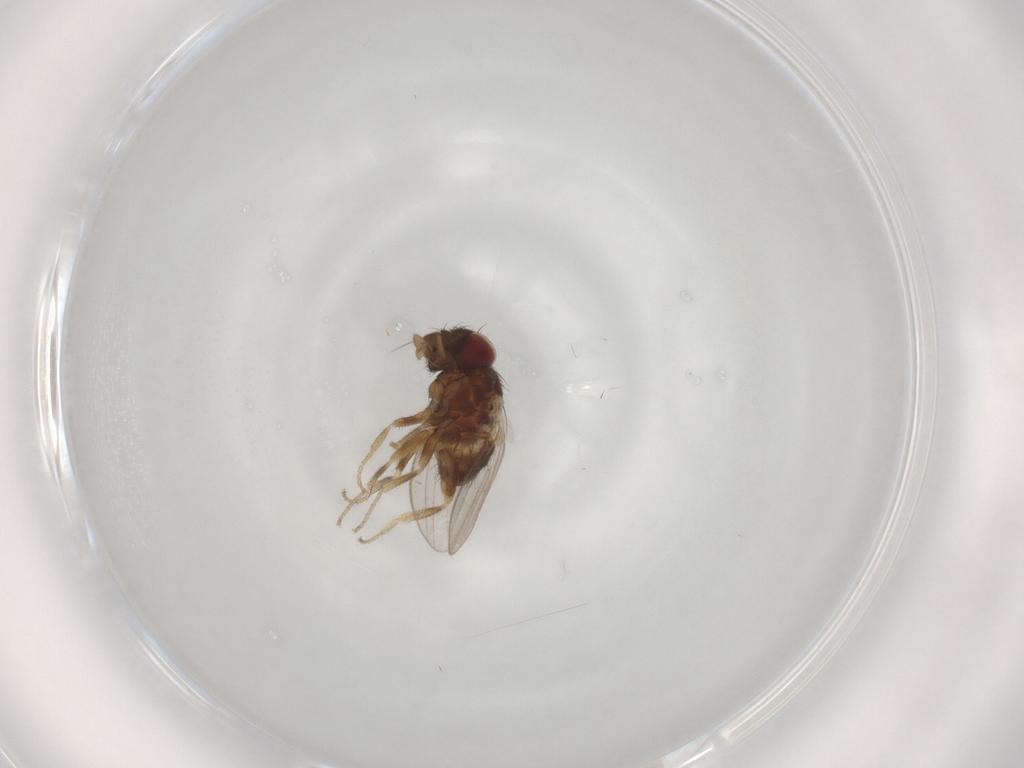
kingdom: Animalia
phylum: Arthropoda
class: Insecta
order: Diptera
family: Milichiidae
